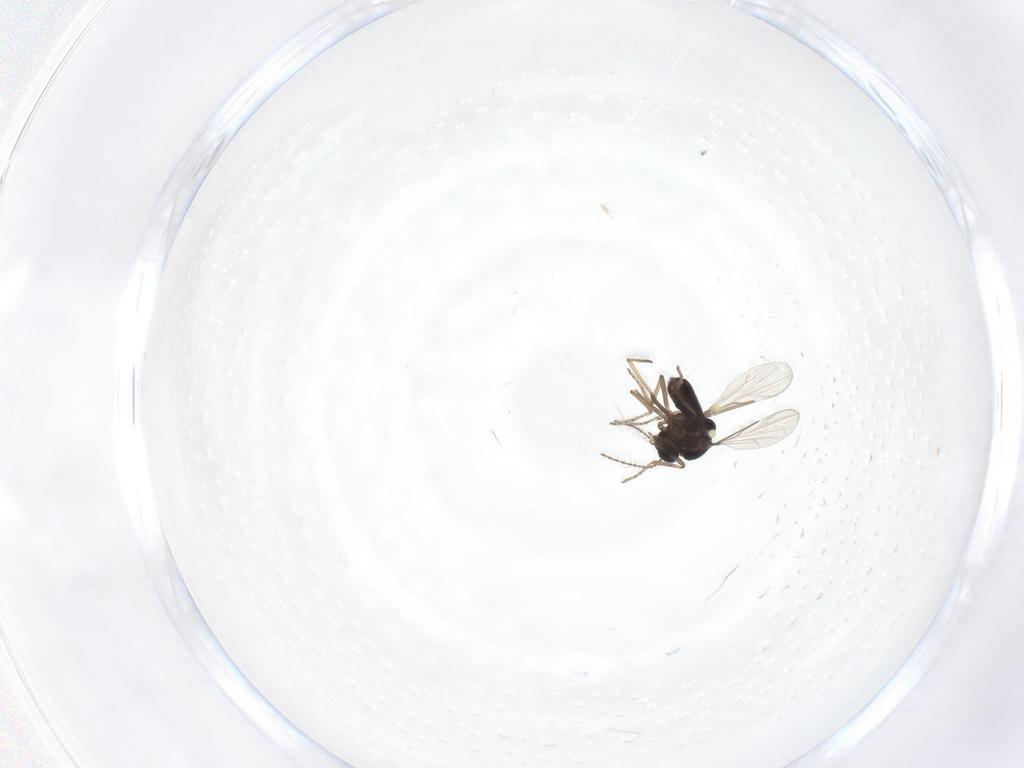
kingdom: Animalia
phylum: Arthropoda
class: Insecta
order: Diptera
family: Ceratopogonidae
